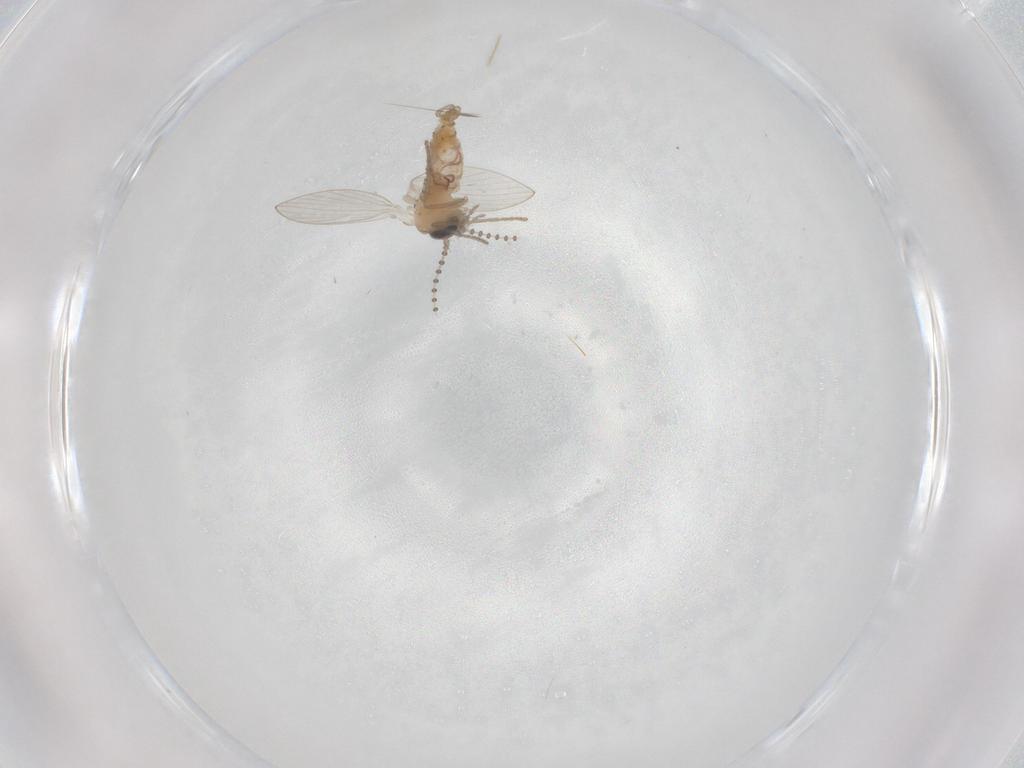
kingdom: Animalia
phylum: Arthropoda
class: Insecta
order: Diptera
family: Psychodidae
